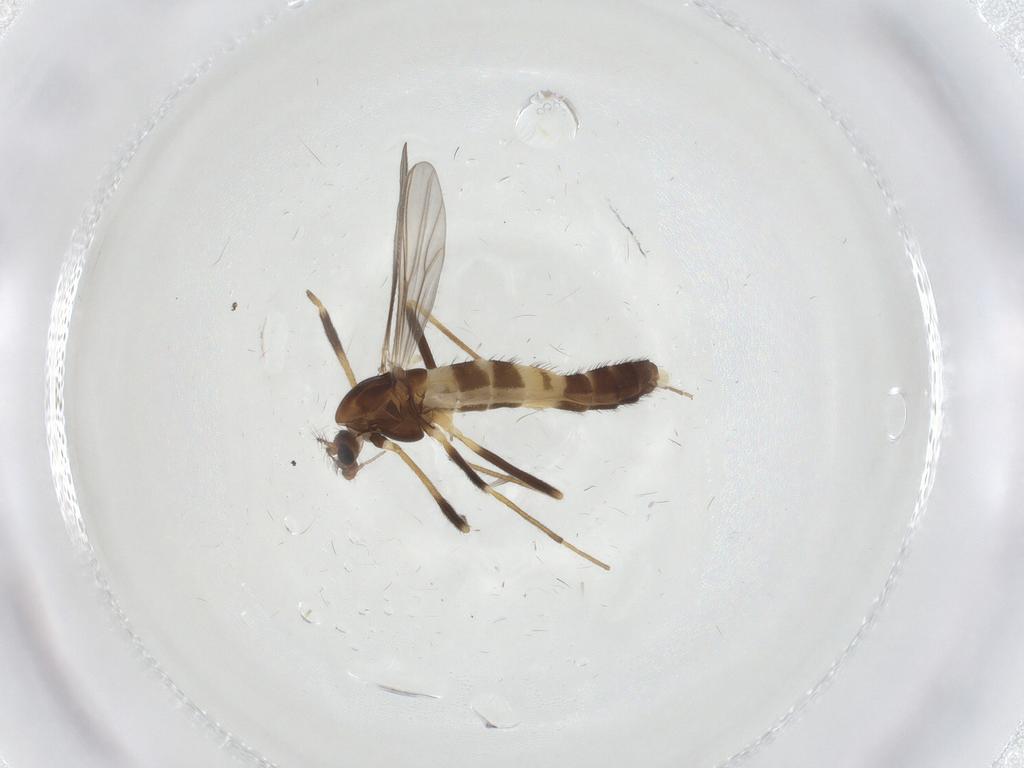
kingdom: Animalia
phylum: Arthropoda
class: Insecta
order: Diptera
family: Chironomidae
